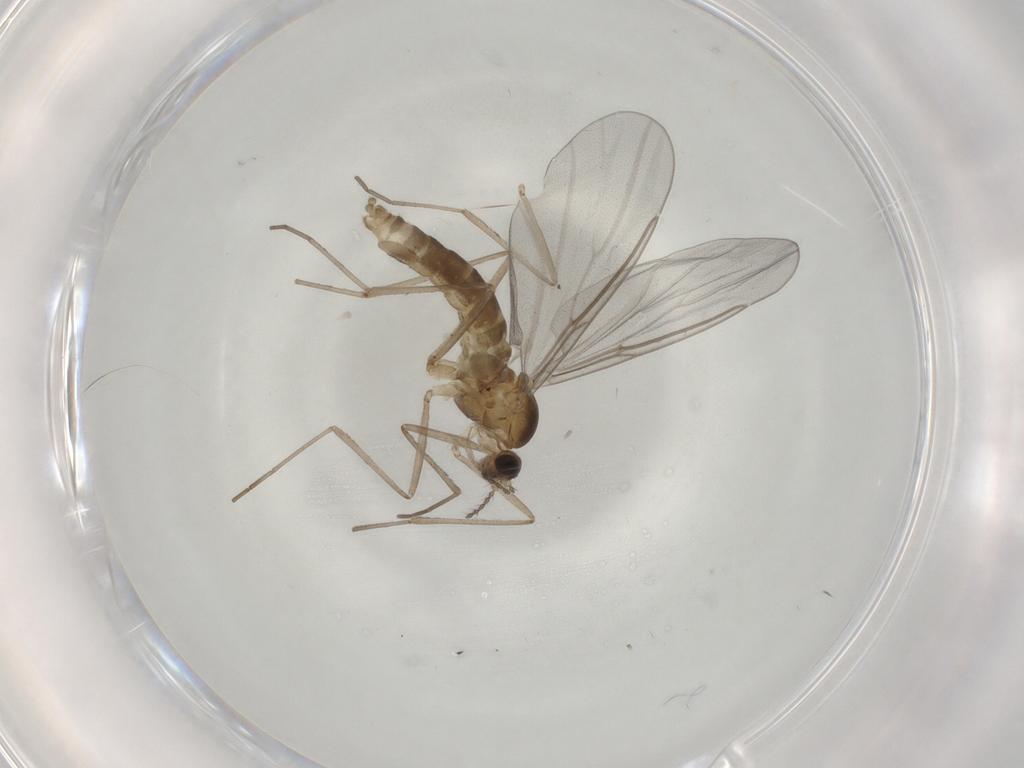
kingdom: Animalia
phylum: Arthropoda
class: Insecta
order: Diptera
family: Cecidomyiidae
